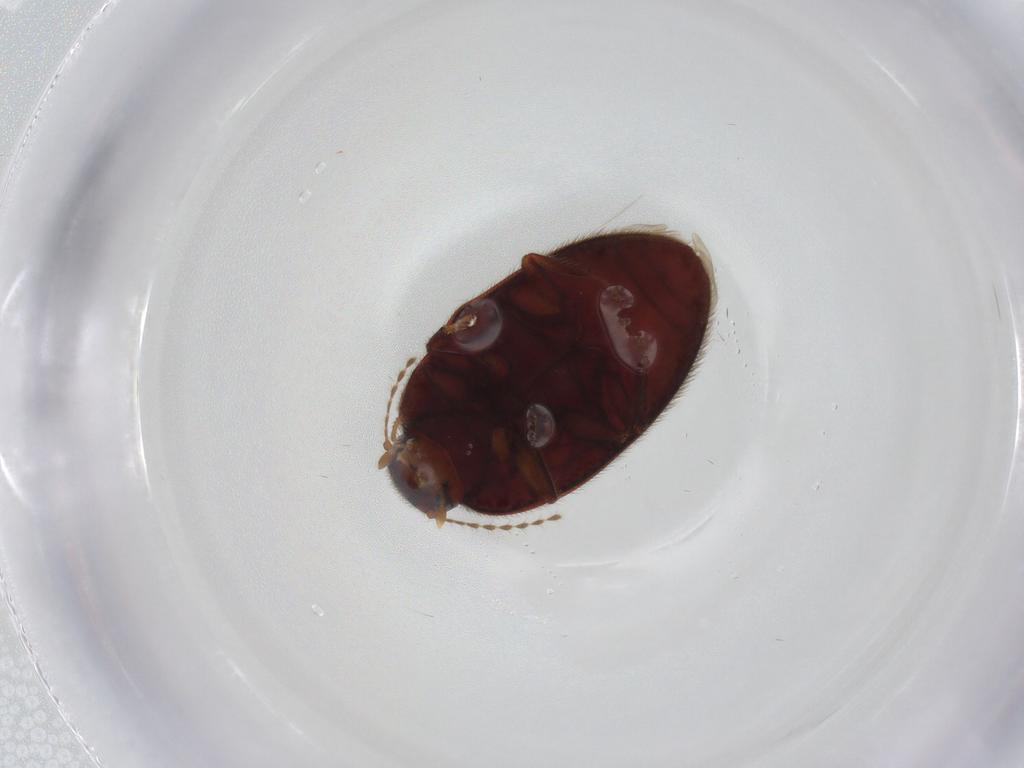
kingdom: Animalia
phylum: Arthropoda
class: Insecta
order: Coleoptera
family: Limnichidae
